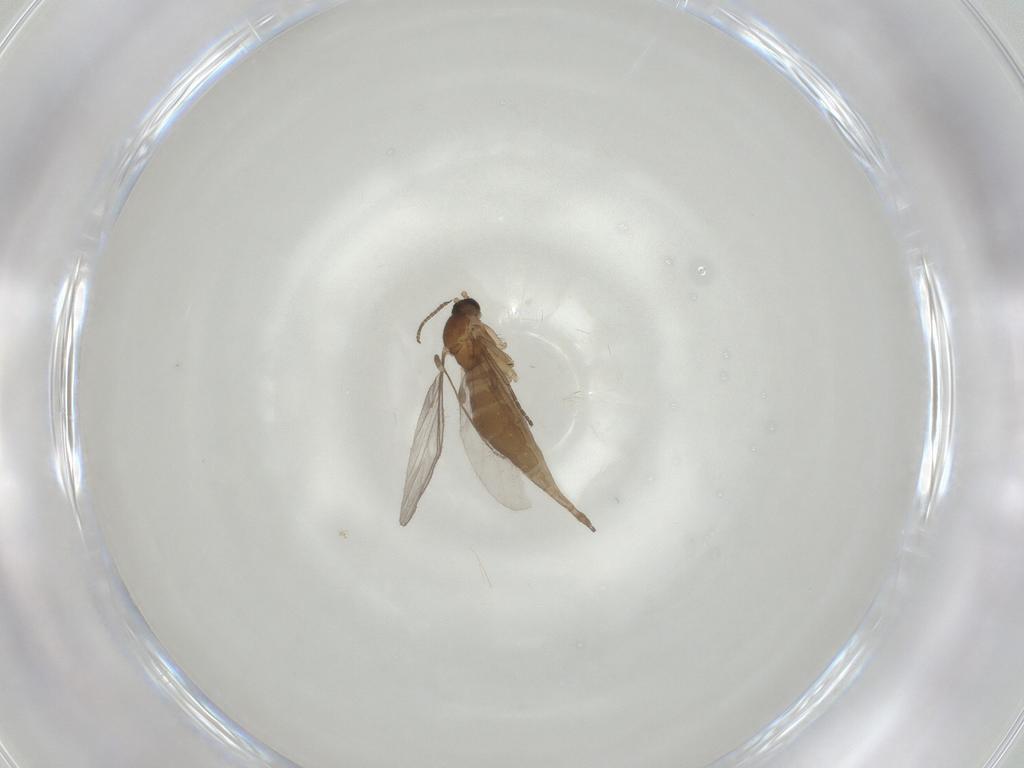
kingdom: Animalia
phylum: Arthropoda
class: Insecta
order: Diptera
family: Sciaridae
